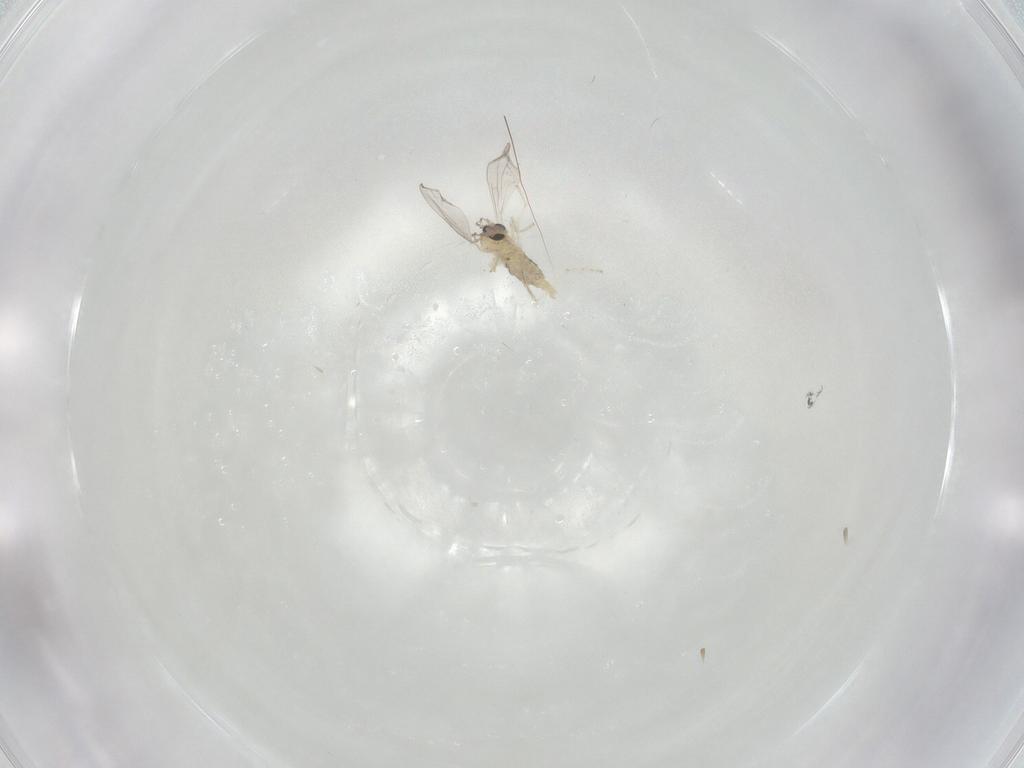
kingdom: Animalia
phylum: Arthropoda
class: Insecta
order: Diptera
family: Cecidomyiidae
